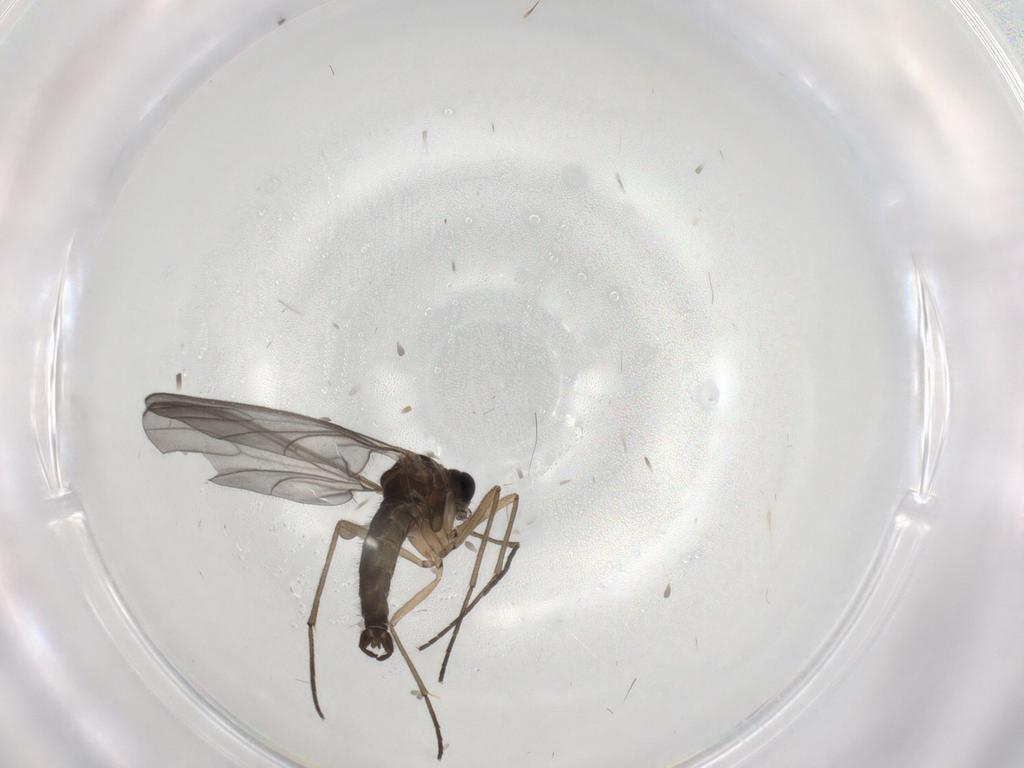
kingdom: Animalia
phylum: Arthropoda
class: Insecta
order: Diptera
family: Sciaridae
